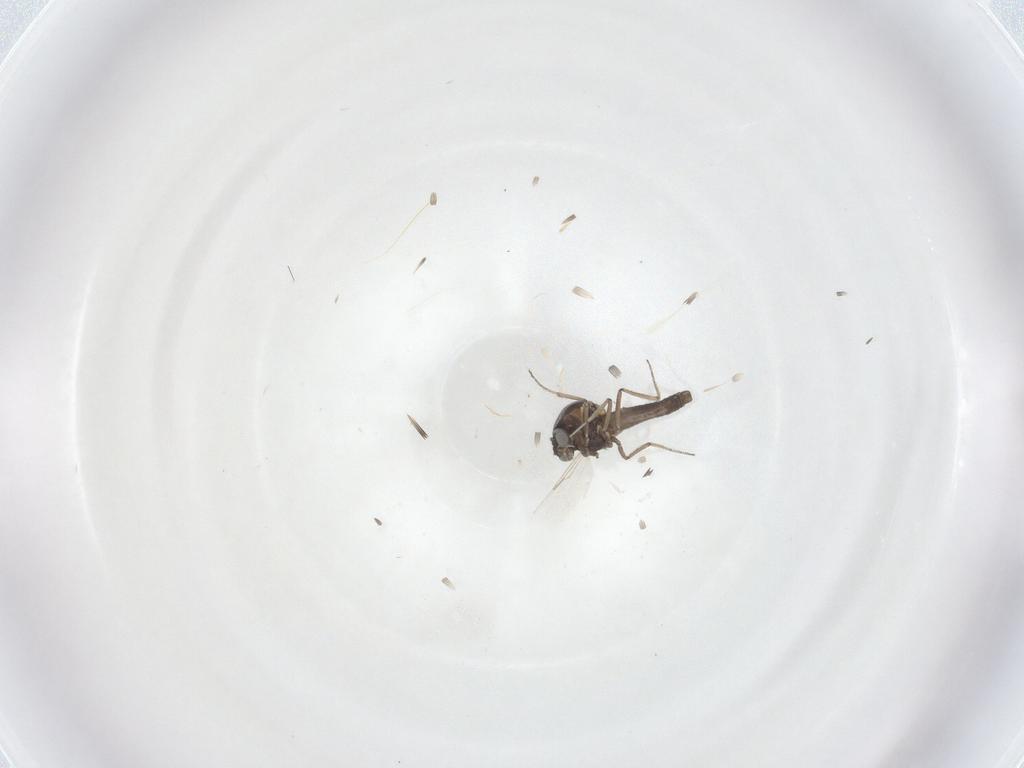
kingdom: Animalia
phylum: Arthropoda
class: Insecta
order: Diptera
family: Ceratopogonidae
